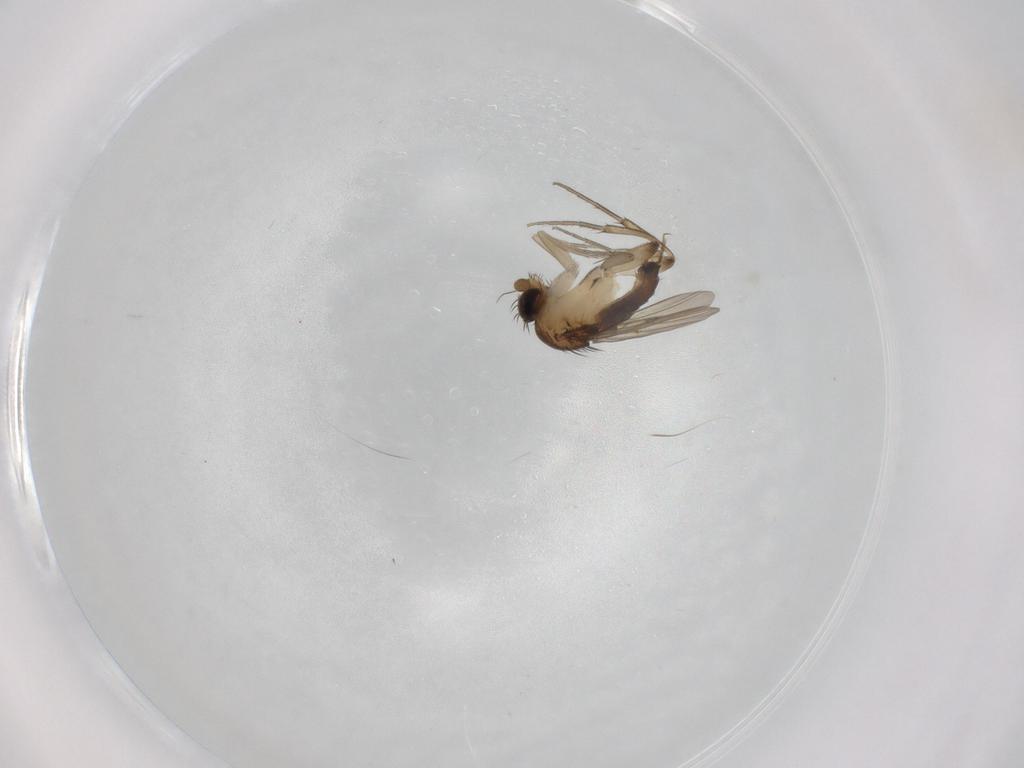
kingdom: Animalia
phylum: Arthropoda
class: Insecta
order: Diptera
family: Phoridae
